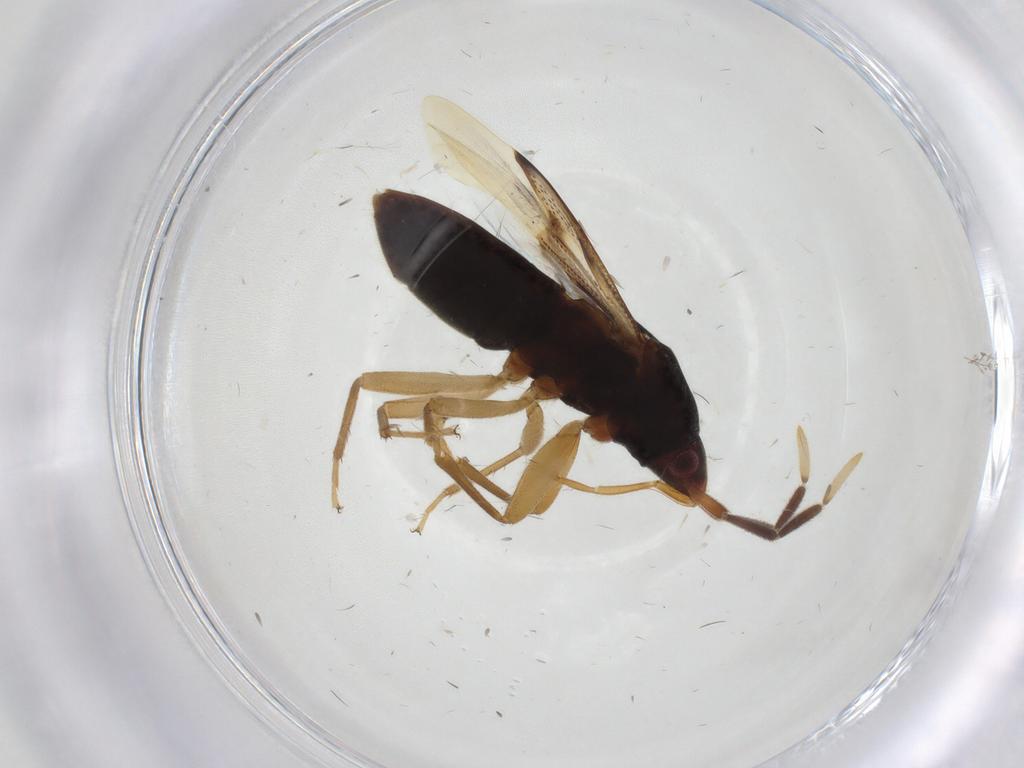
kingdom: Animalia
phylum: Arthropoda
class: Insecta
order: Hemiptera
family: Rhyparochromidae
